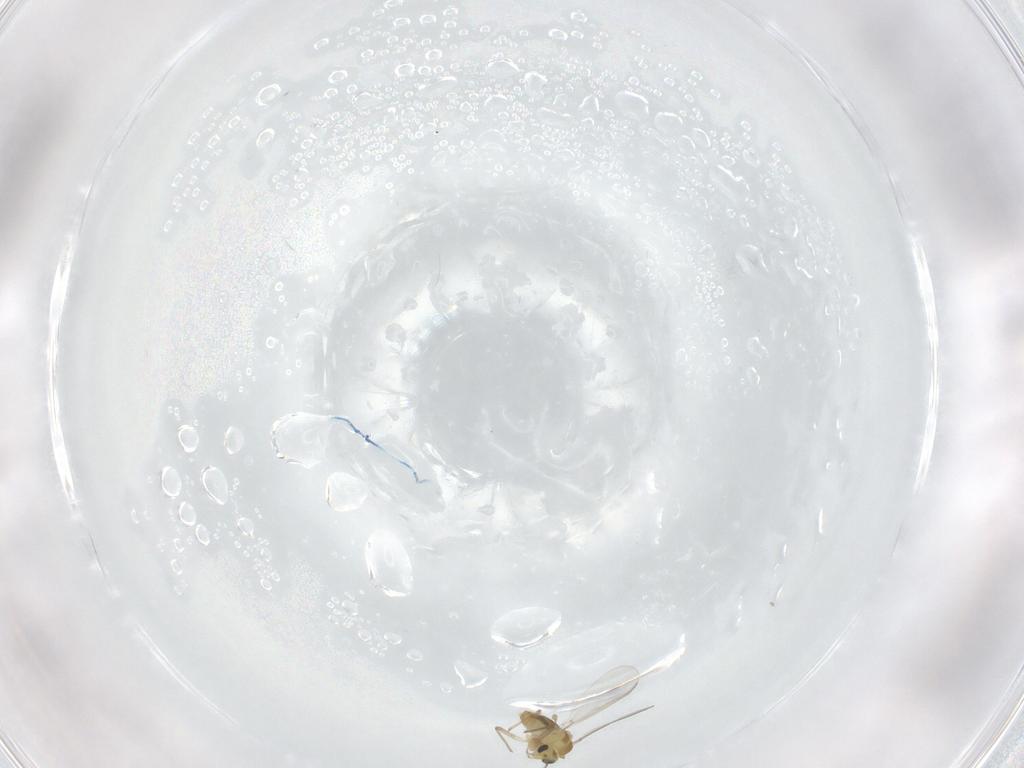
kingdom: Animalia
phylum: Arthropoda
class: Insecta
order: Diptera
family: Chironomidae
